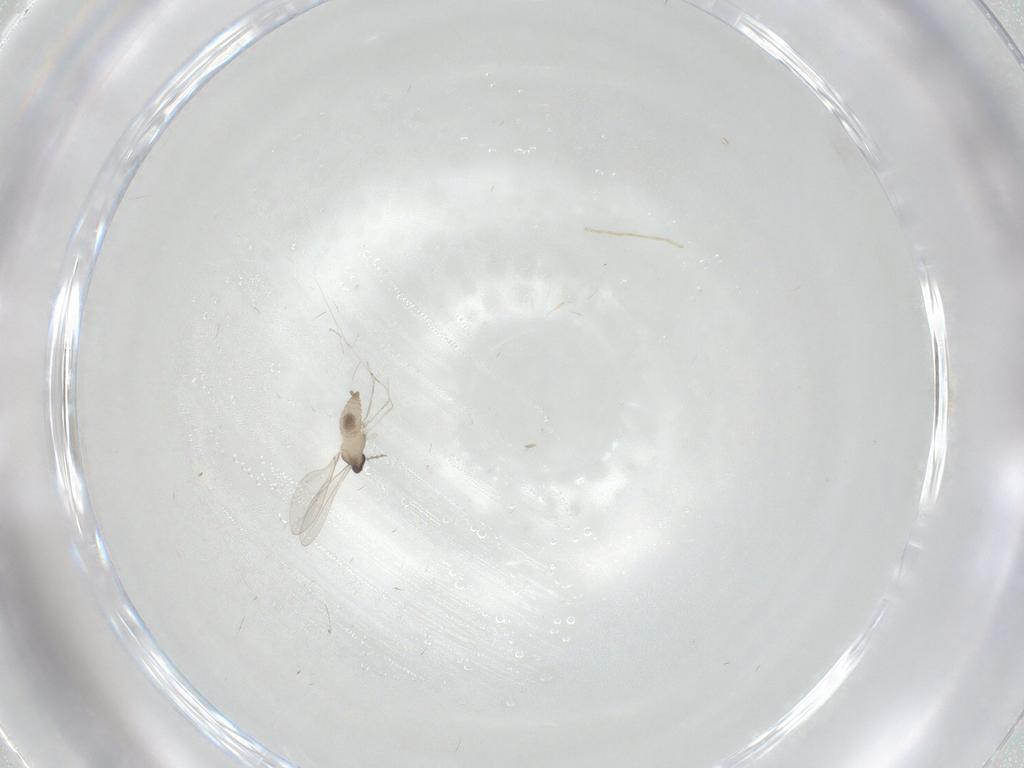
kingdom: Animalia
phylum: Arthropoda
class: Insecta
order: Diptera
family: Cecidomyiidae
